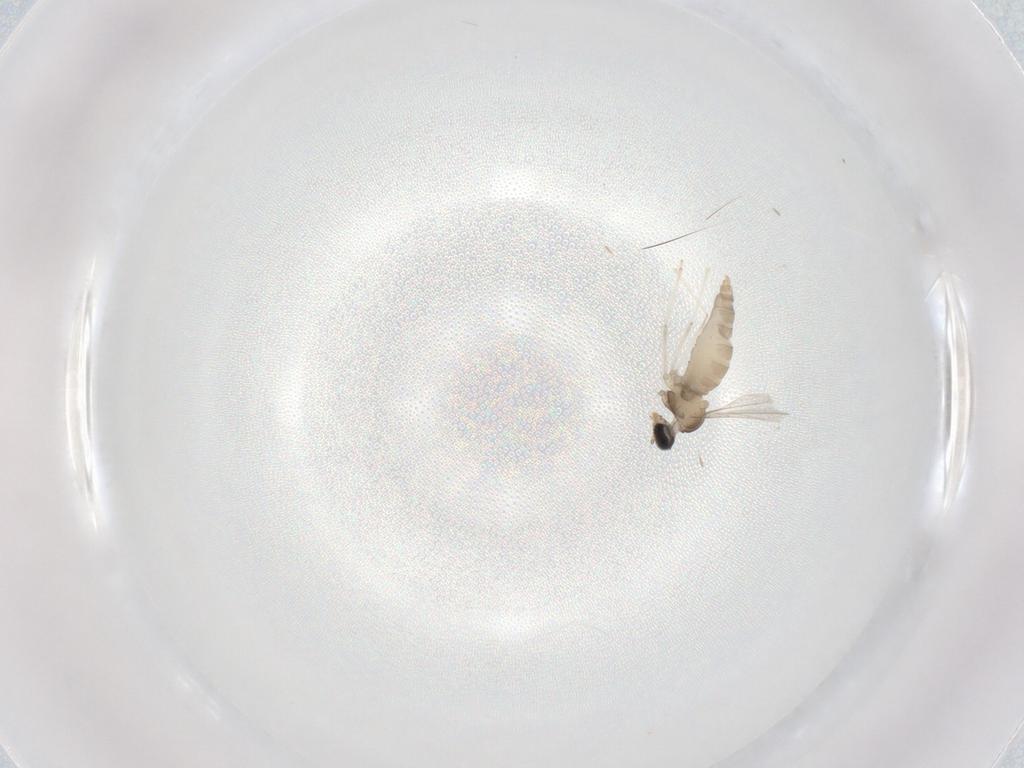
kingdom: Animalia
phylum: Arthropoda
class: Insecta
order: Diptera
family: Cecidomyiidae
